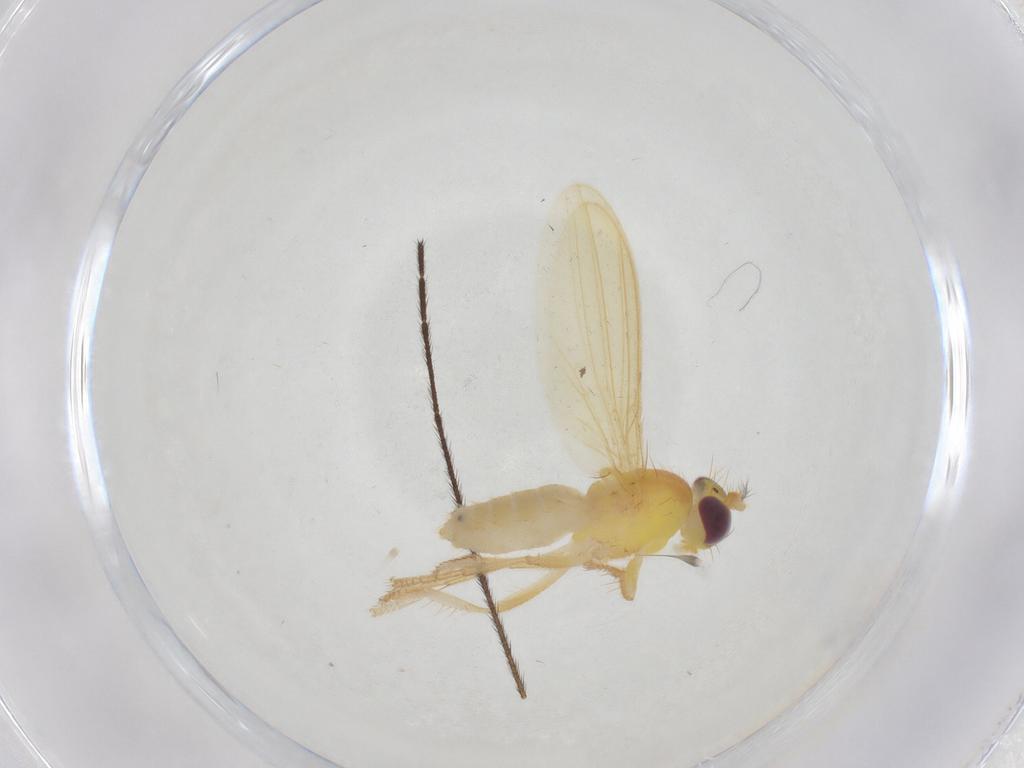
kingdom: Animalia
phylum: Arthropoda
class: Insecta
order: Diptera
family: Periscelididae
